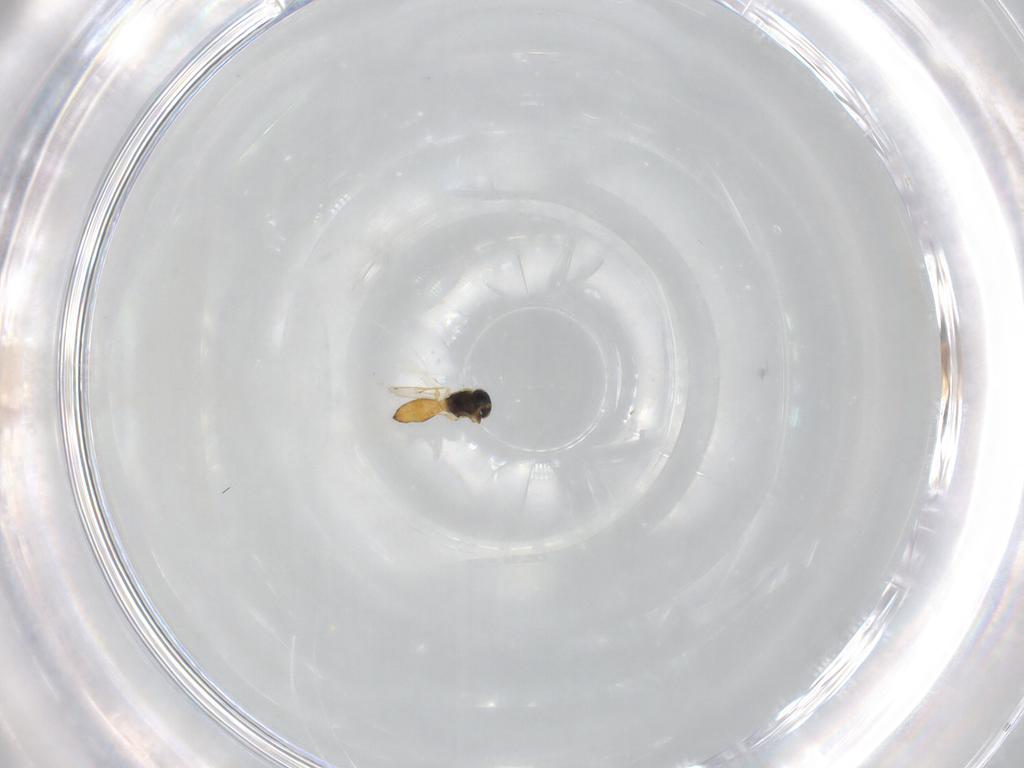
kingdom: Animalia
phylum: Arthropoda
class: Insecta
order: Hymenoptera
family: Scelionidae
